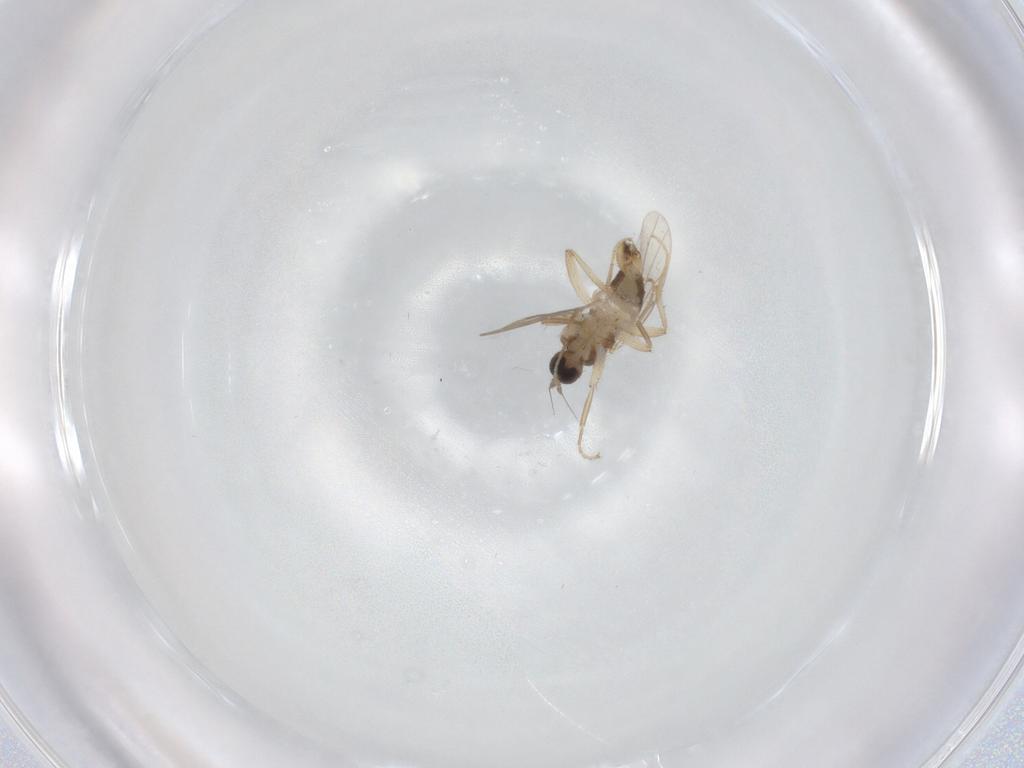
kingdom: Animalia
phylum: Arthropoda
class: Insecta
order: Diptera
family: Hybotidae
